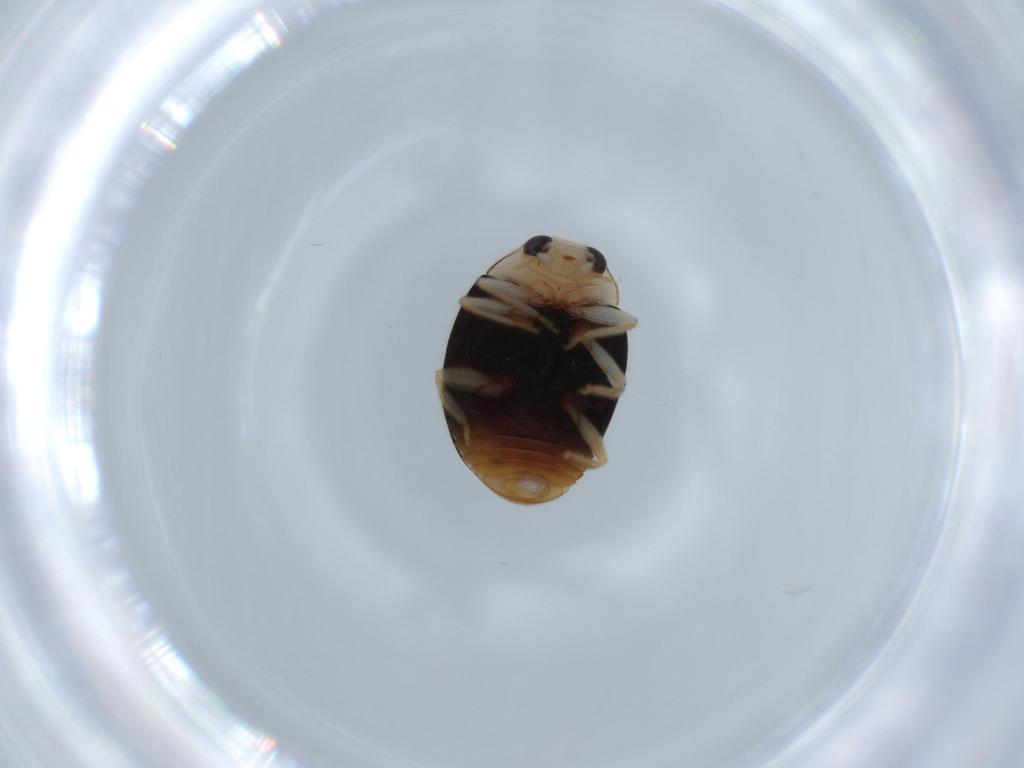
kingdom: Animalia
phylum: Arthropoda
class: Insecta
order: Coleoptera
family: Coccinellidae
